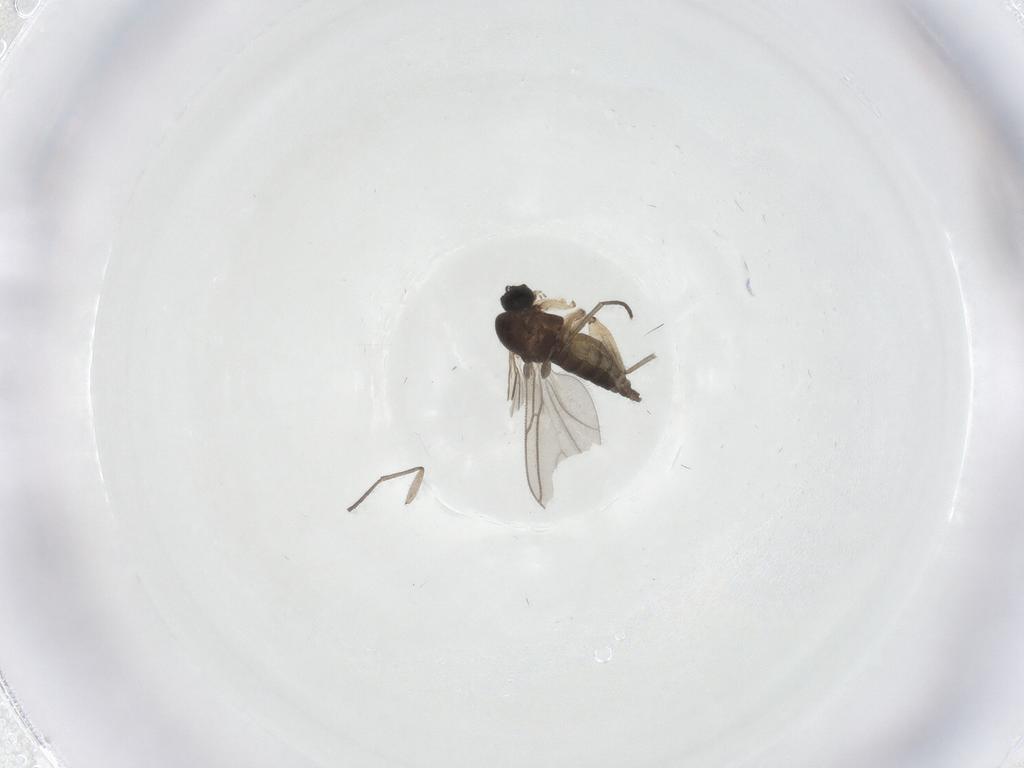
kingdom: Animalia
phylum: Arthropoda
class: Insecta
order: Diptera
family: Sciaridae
